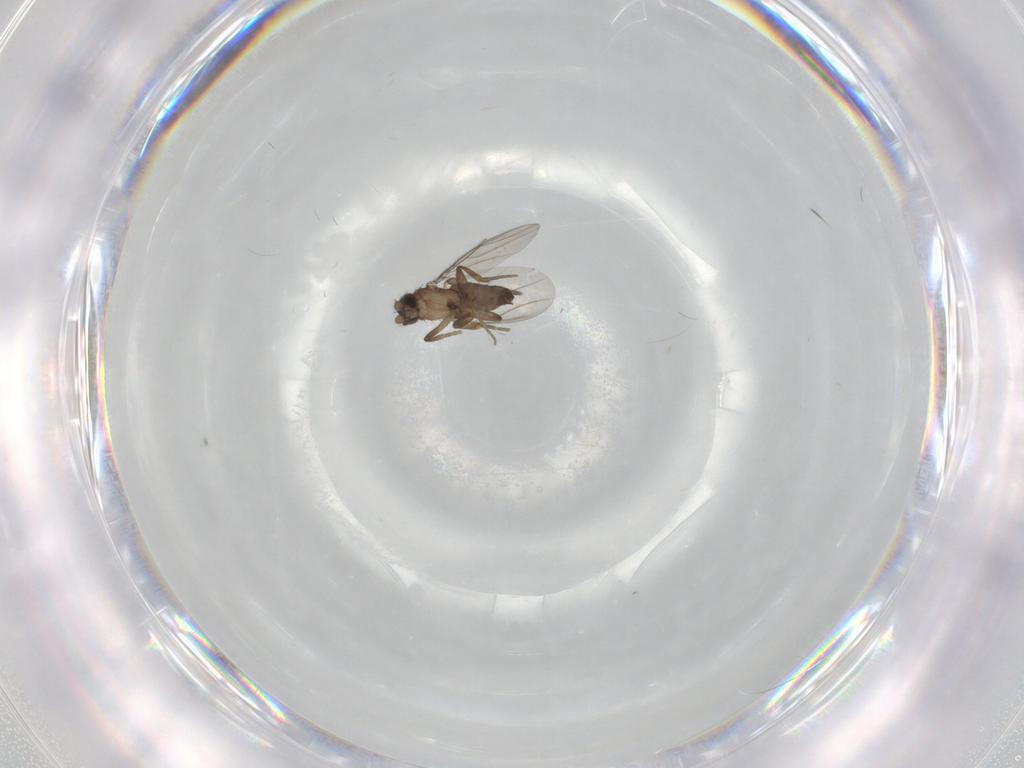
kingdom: Animalia
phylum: Arthropoda
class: Insecta
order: Diptera
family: Phoridae
